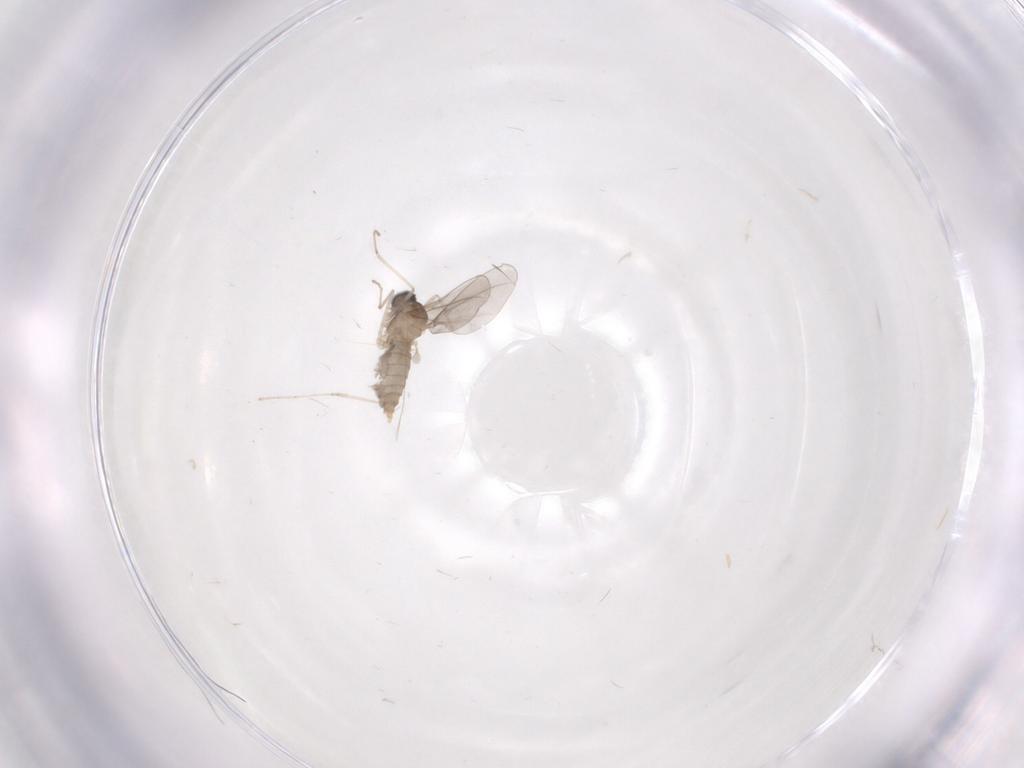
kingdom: Animalia
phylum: Arthropoda
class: Insecta
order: Diptera
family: Cecidomyiidae
